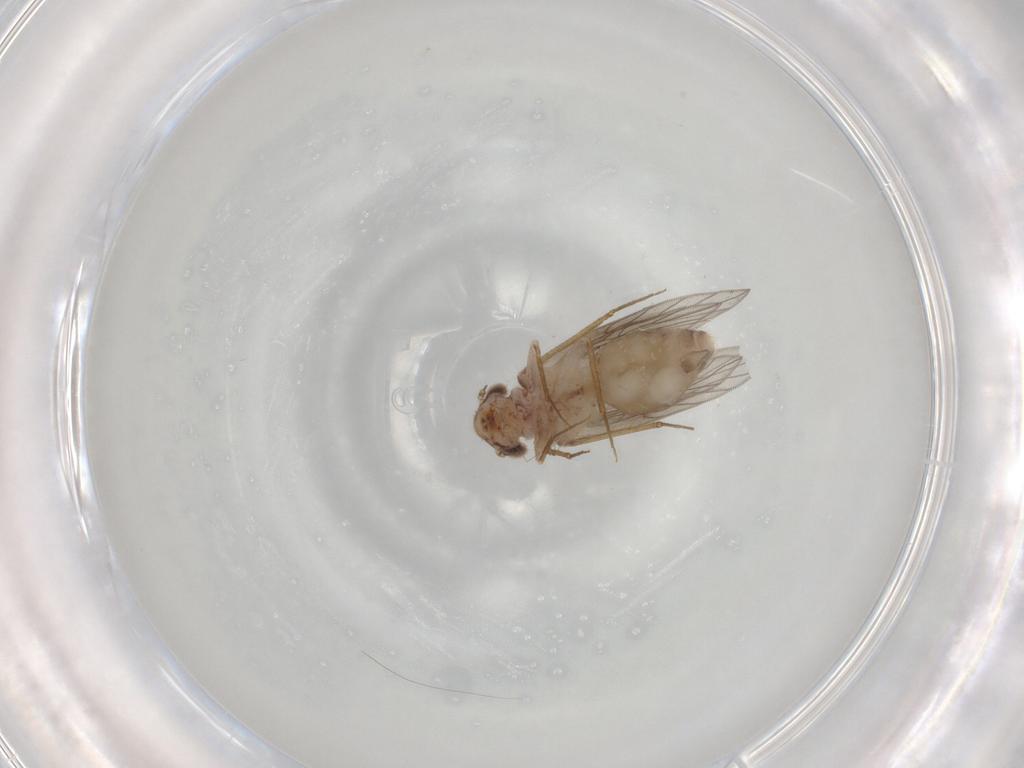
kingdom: Animalia
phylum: Arthropoda
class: Insecta
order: Psocodea
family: Lepidopsocidae
